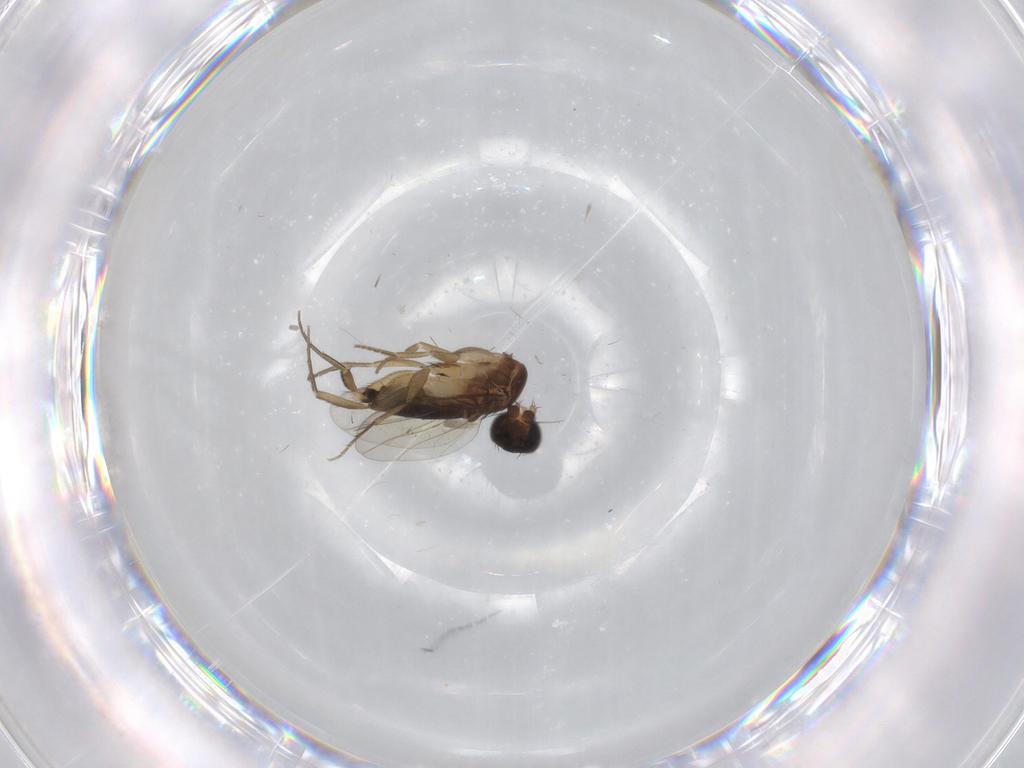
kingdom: Animalia
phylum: Arthropoda
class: Insecta
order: Diptera
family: Phoridae
